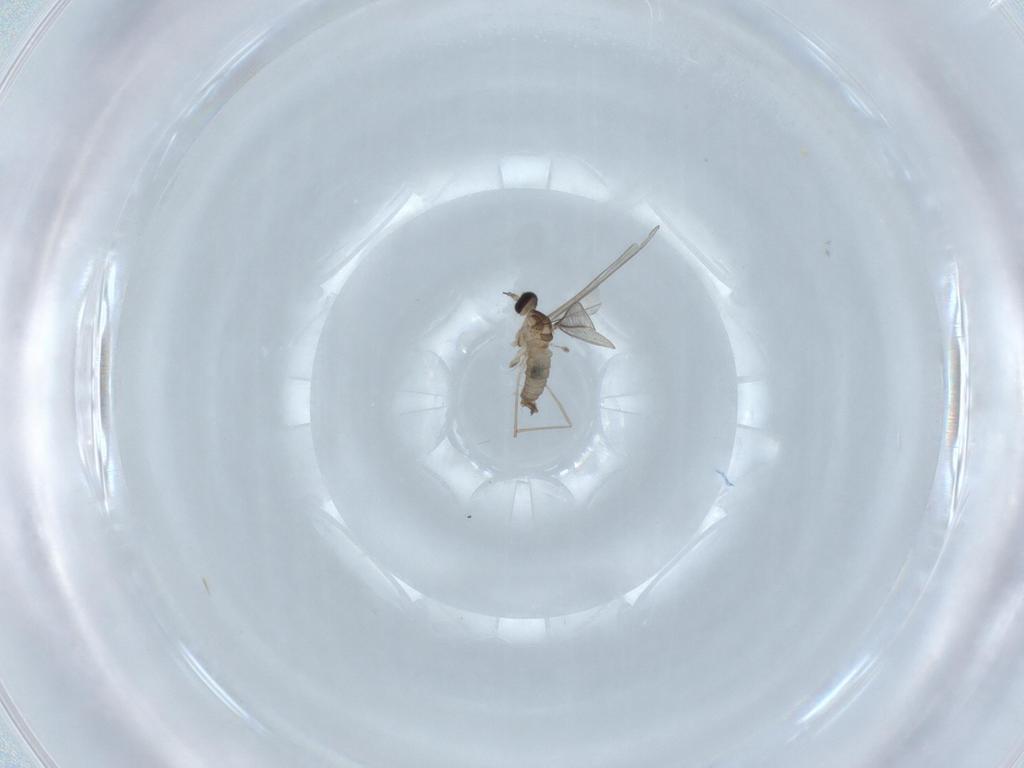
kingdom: Animalia
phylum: Arthropoda
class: Insecta
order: Diptera
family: Cecidomyiidae
